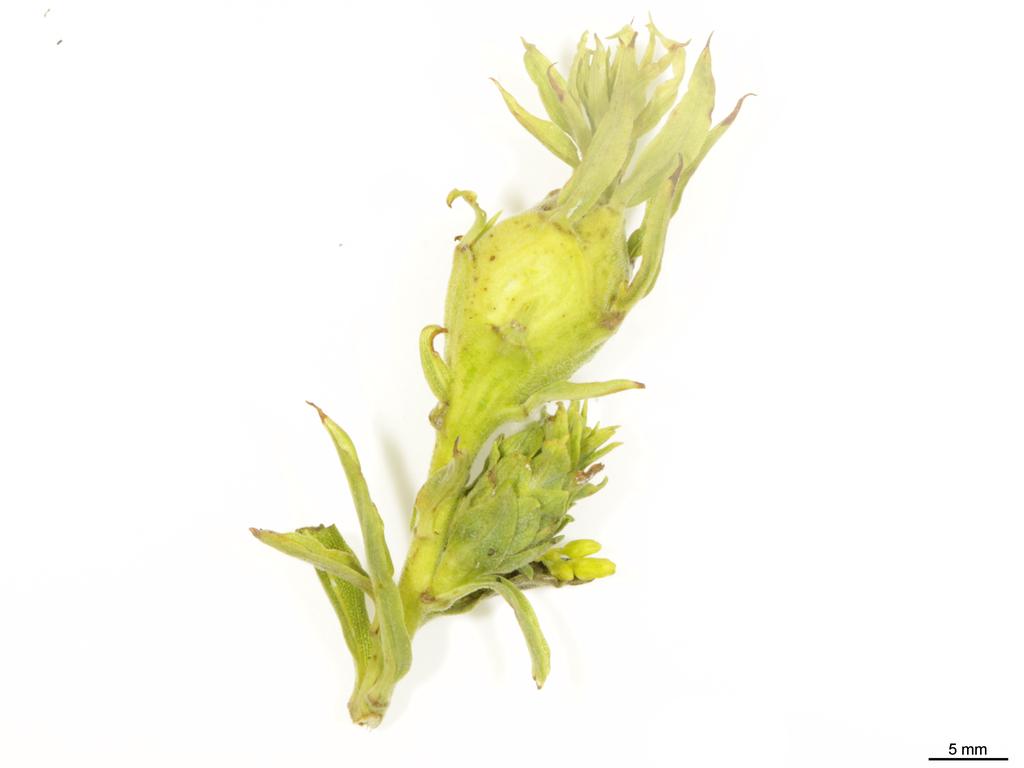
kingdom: Animalia
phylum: Arthropoda
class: Insecta
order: Hymenoptera
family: Eulophidae
